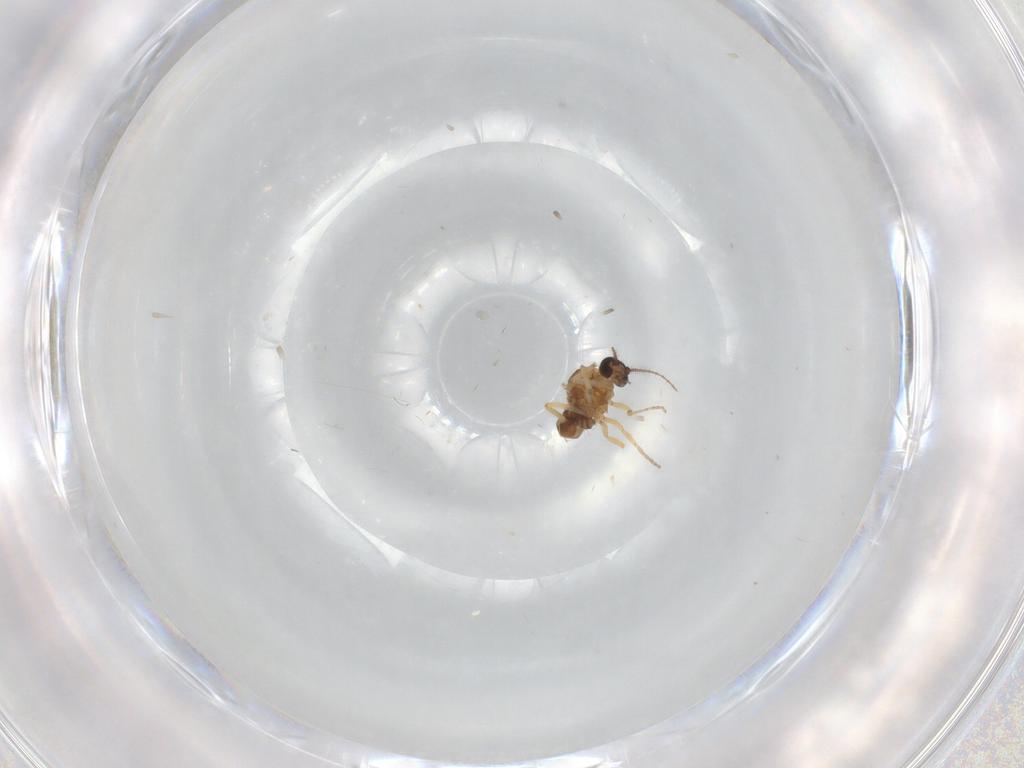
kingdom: Animalia
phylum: Arthropoda
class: Insecta
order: Diptera
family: Ceratopogonidae
